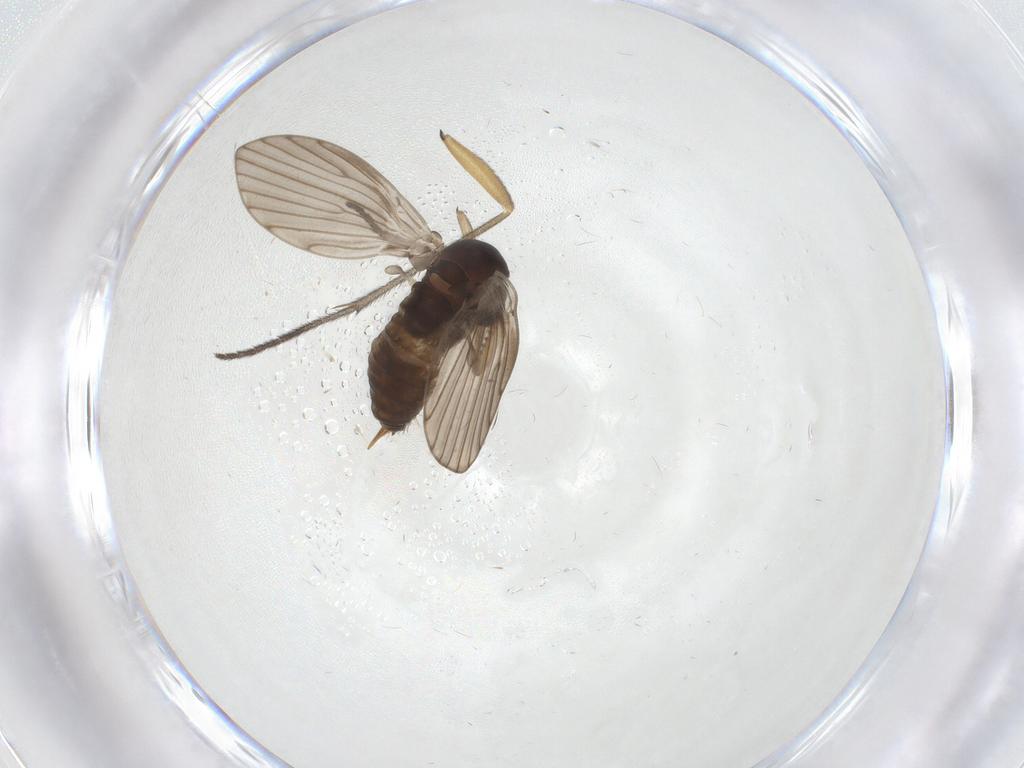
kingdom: Animalia
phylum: Arthropoda
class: Insecta
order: Diptera
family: Psychodidae
